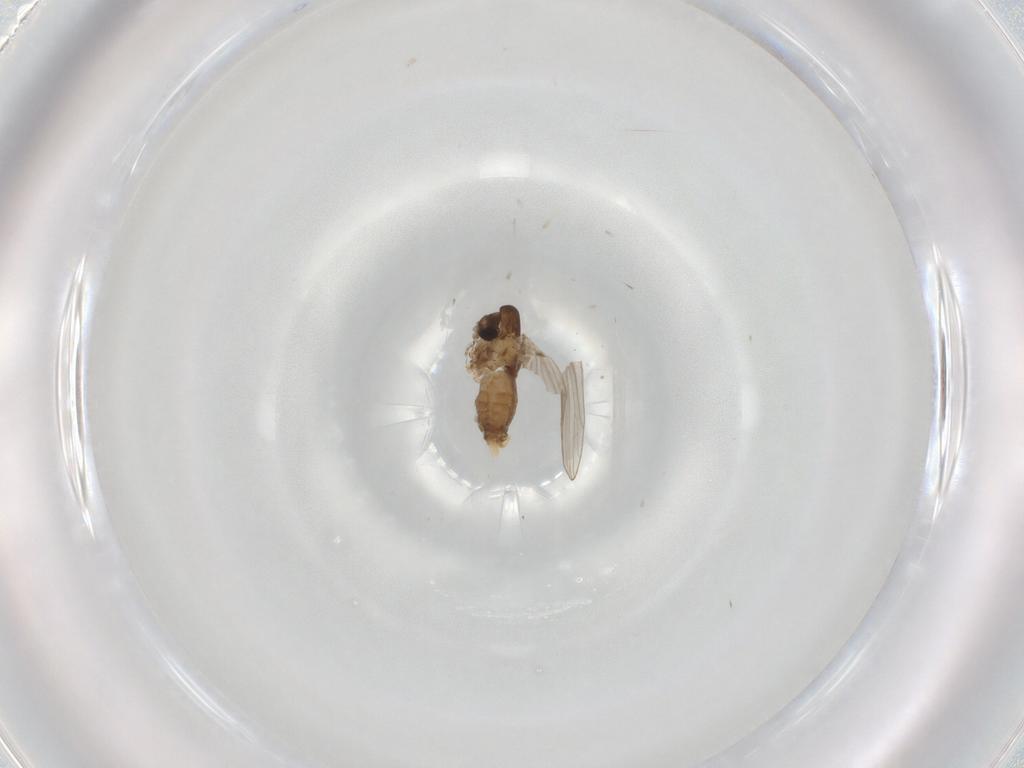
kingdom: Animalia
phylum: Arthropoda
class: Insecta
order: Diptera
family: Psychodidae
